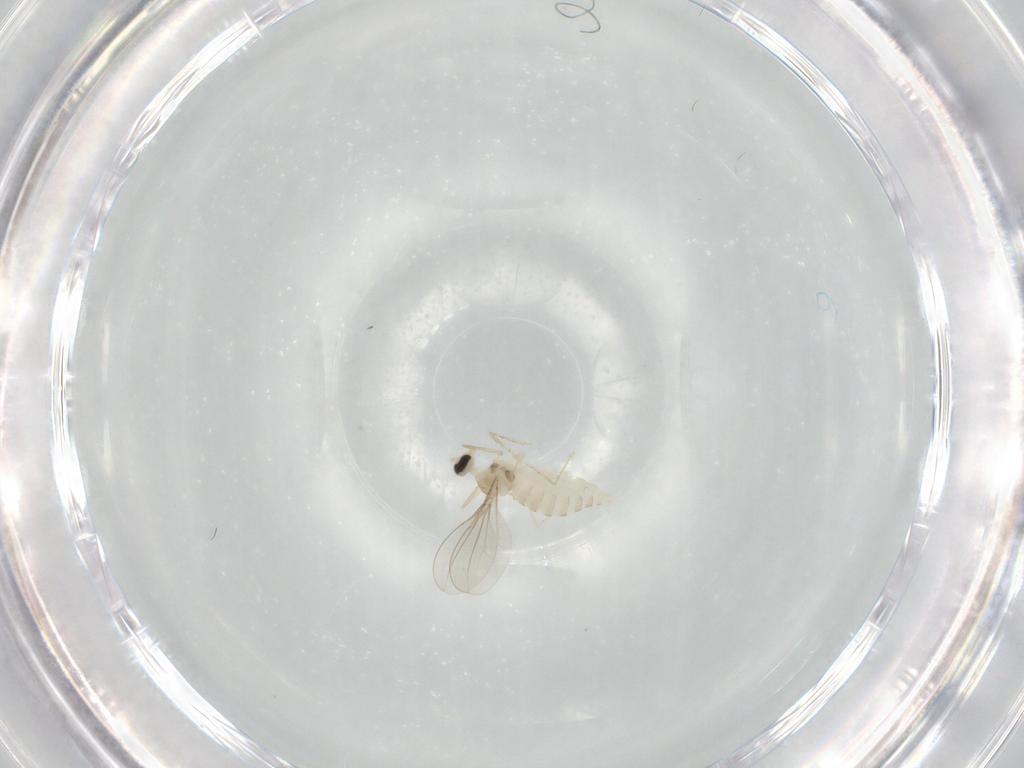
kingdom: Animalia
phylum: Arthropoda
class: Insecta
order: Diptera
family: Cecidomyiidae
